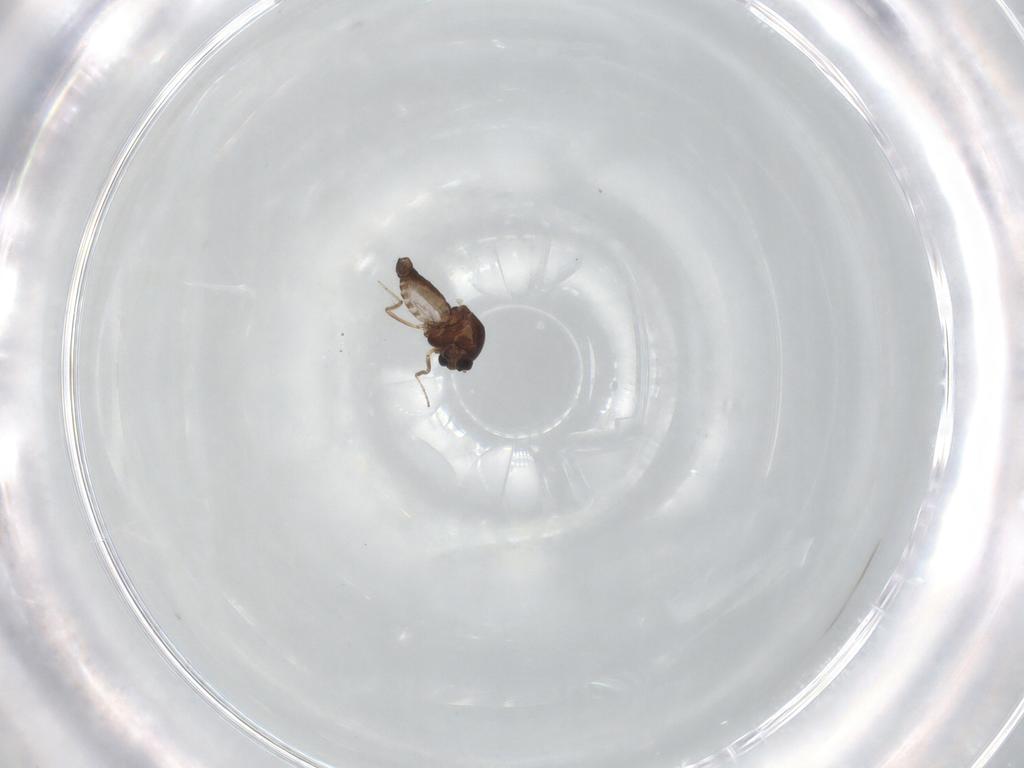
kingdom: Animalia
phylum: Arthropoda
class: Insecta
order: Diptera
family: Ceratopogonidae
